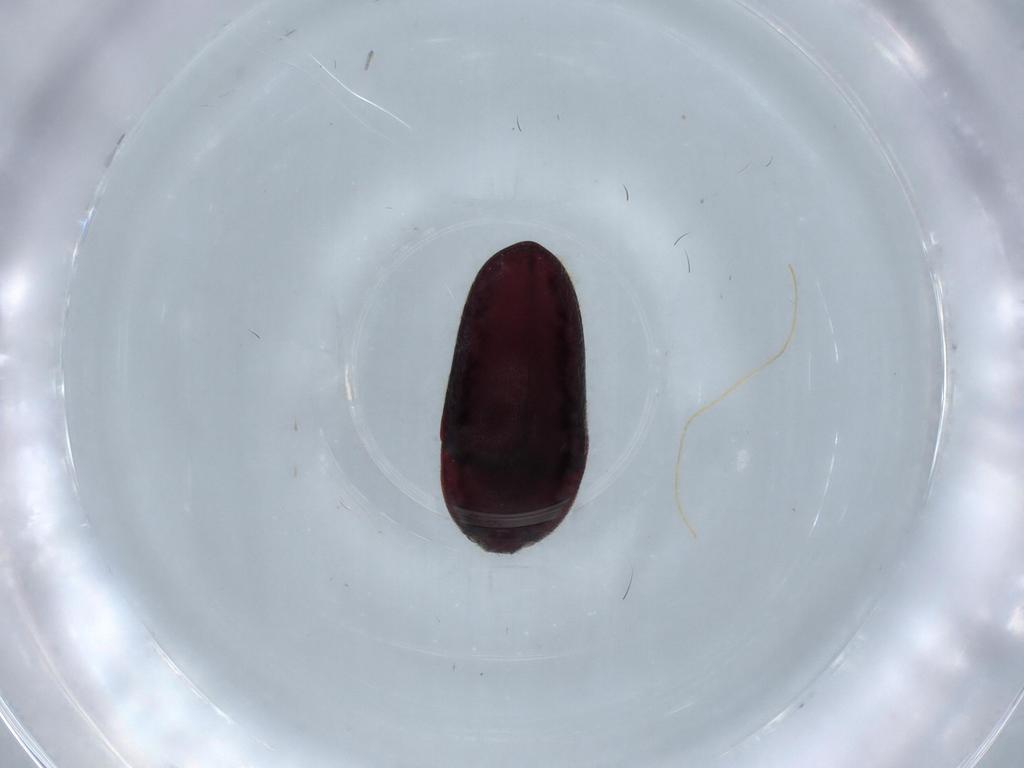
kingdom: Animalia
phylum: Arthropoda
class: Insecta
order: Coleoptera
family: Throscidae
